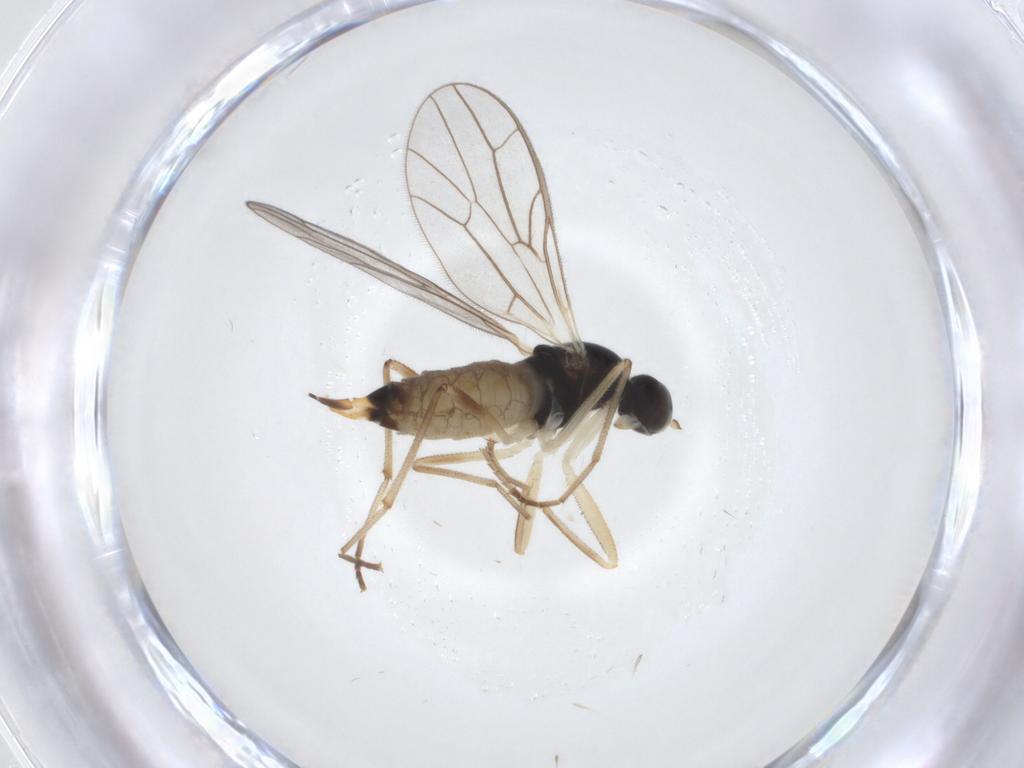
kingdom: Animalia
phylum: Arthropoda
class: Insecta
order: Diptera
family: Empididae
